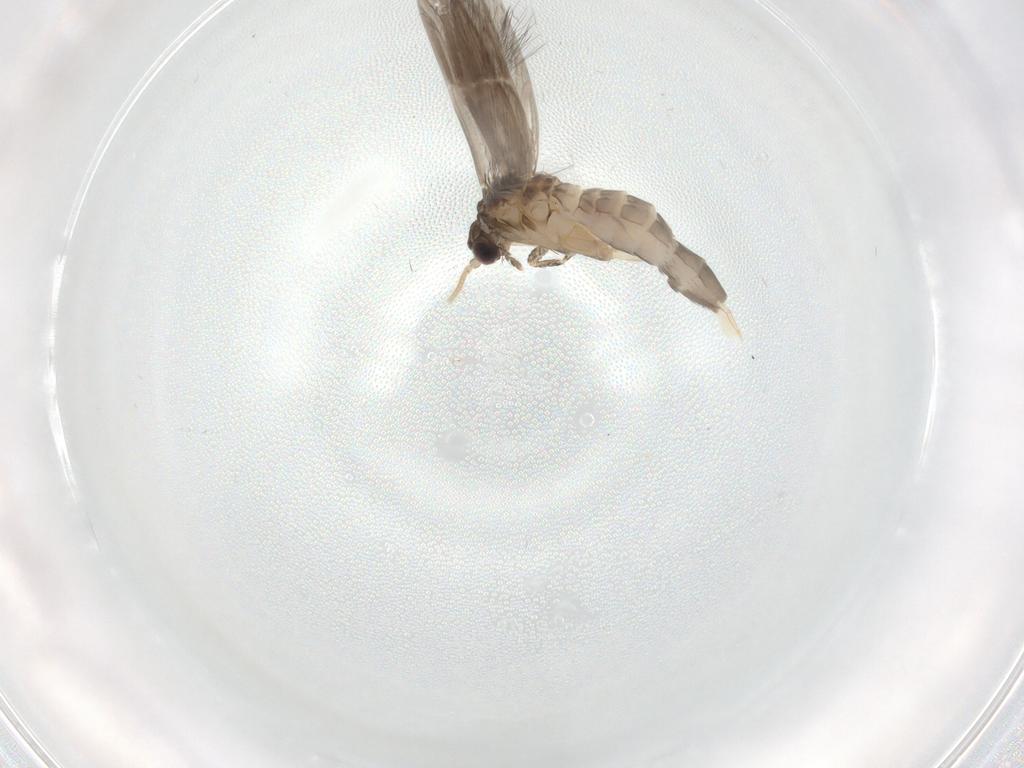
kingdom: Animalia
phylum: Arthropoda
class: Insecta
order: Trichoptera
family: Hydroptilidae
